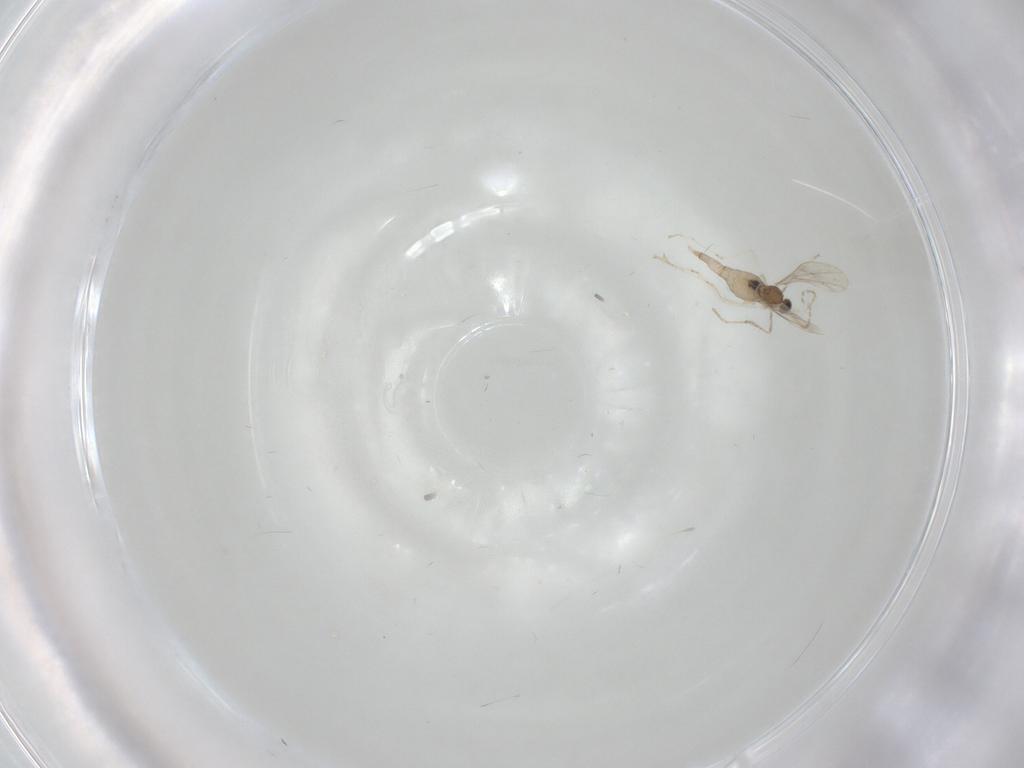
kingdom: Animalia
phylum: Arthropoda
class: Insecta
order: Diptera
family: Cecidomyiidae
